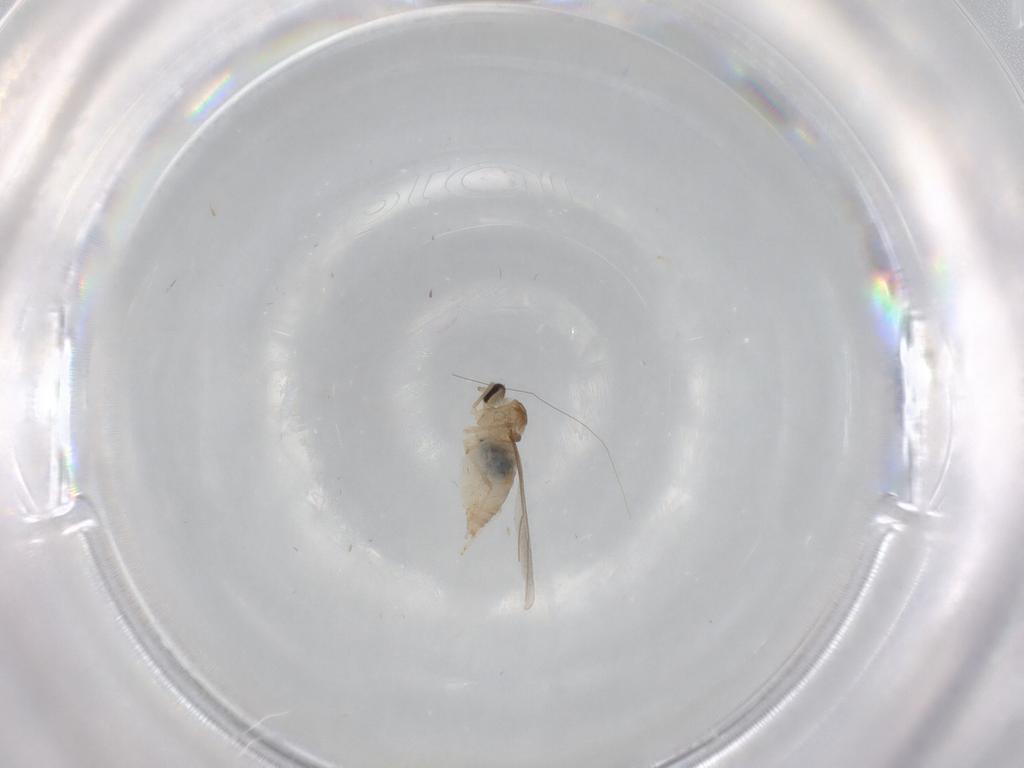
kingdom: Animalia
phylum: Arthropoda
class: Insecta
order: Diptera
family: Cecidomyiidae
